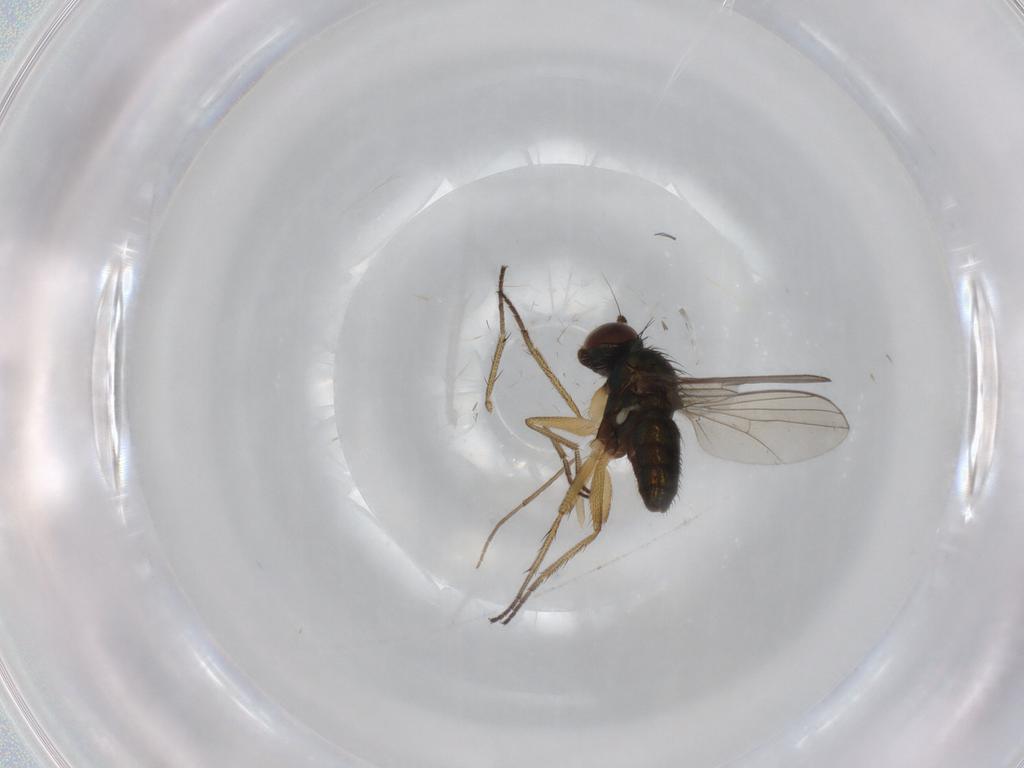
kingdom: Animalia
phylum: Arthropoda
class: Insecta
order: Diptera
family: Chironomidae
